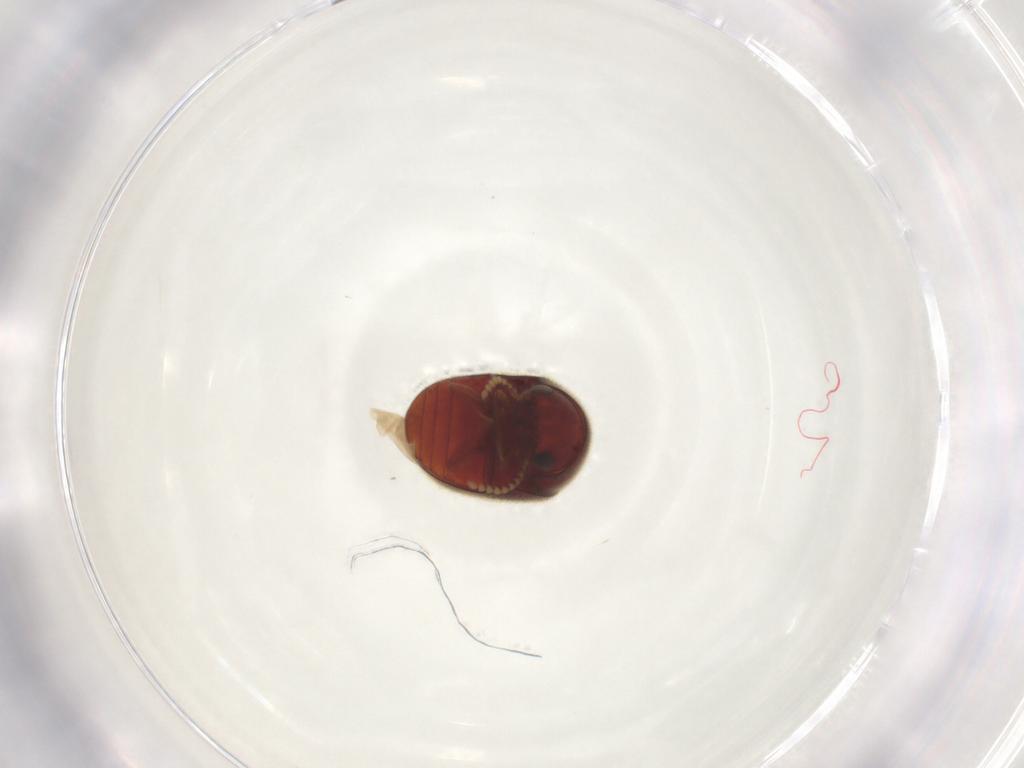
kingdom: Animalia
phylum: Arthropoda
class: Insecta
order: Coleoptera
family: Ptinidae
